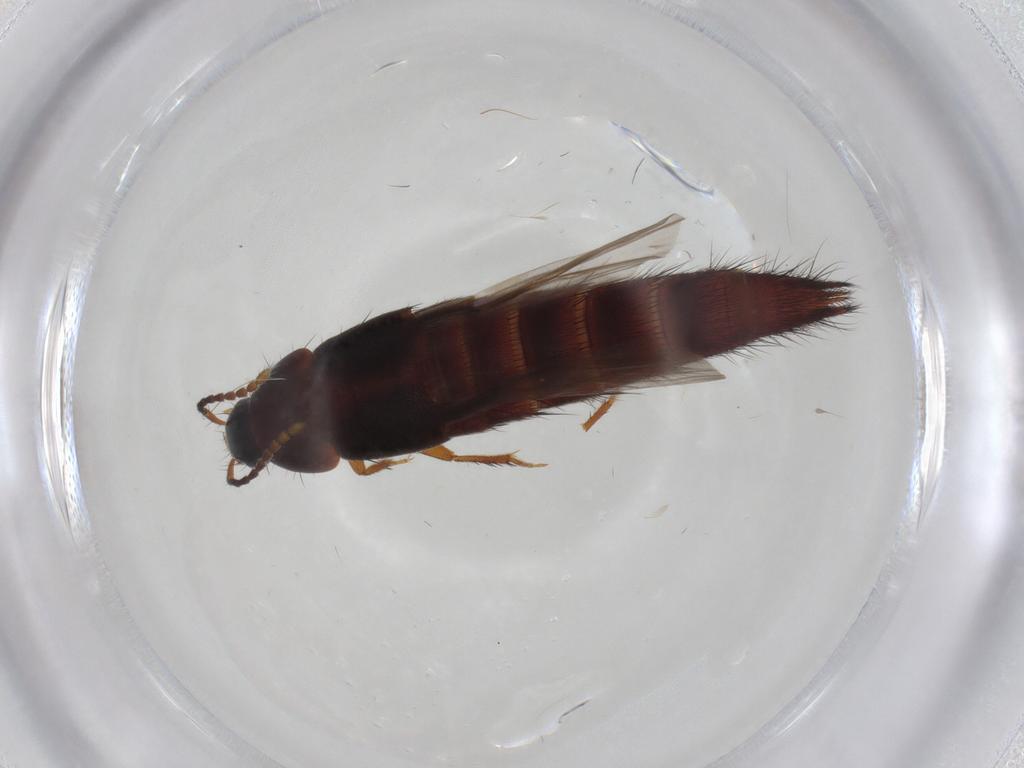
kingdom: Animalia
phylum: Arthropoda
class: Insecta
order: Coleoptera
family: Staphylinidae
